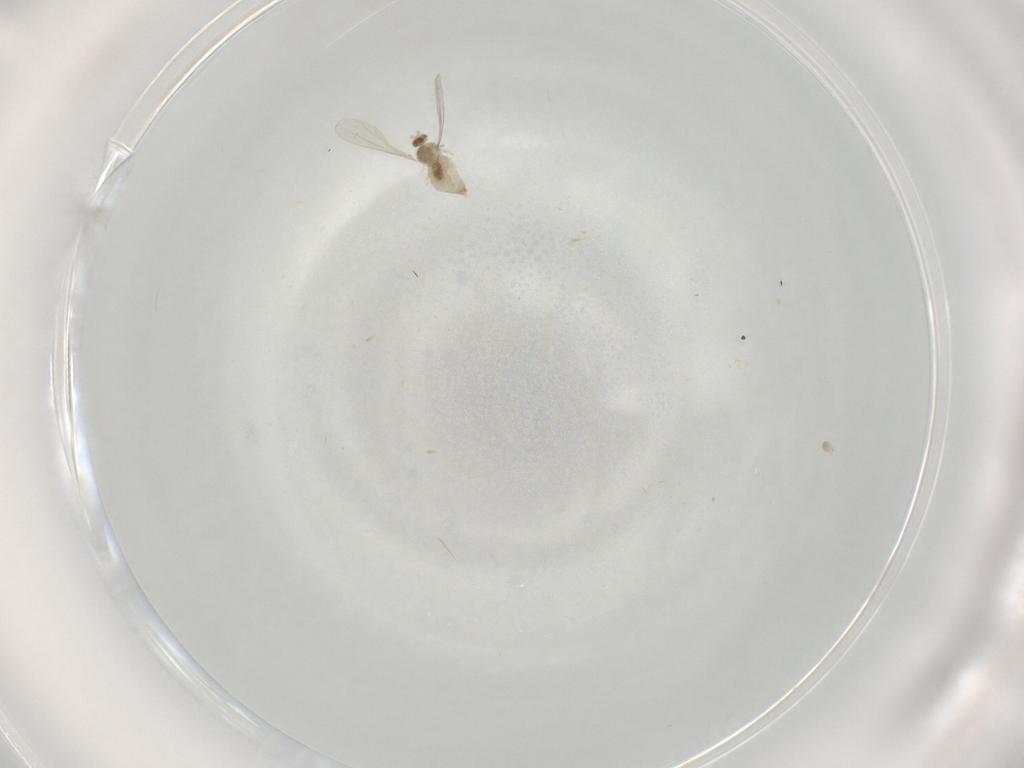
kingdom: Animalia
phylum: Arthropoda
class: Insecta
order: Diptera
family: Cecidomyiidae
